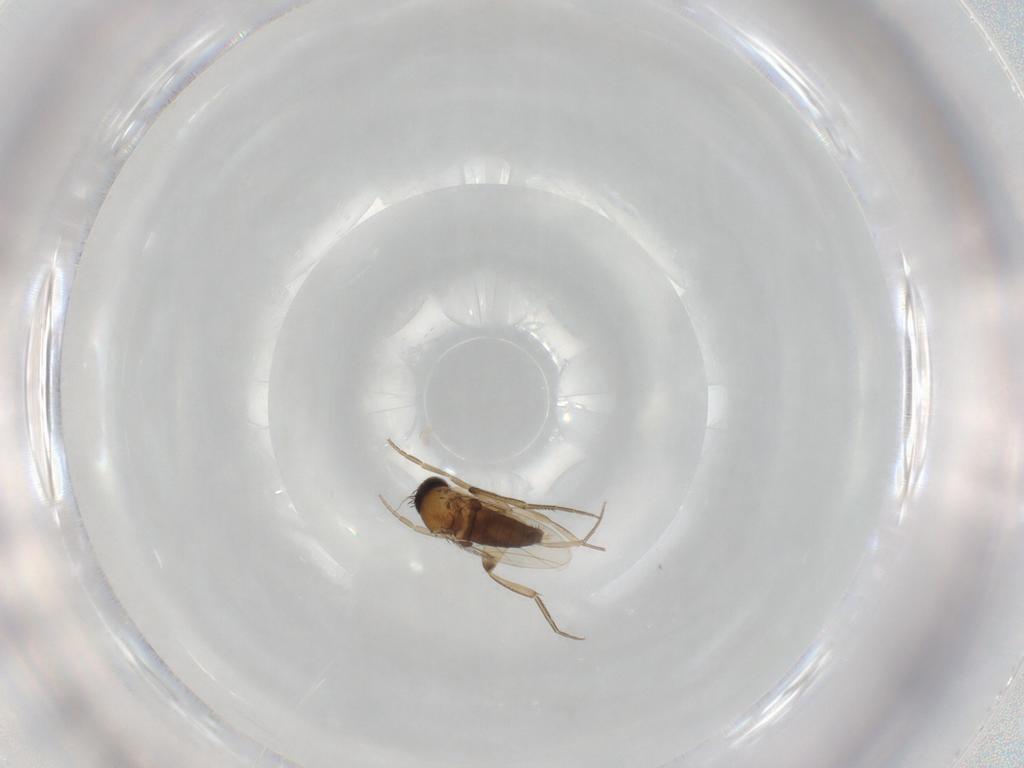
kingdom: Animalia
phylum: Arthropoda
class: Insecta
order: Diptera
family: Phoridae
